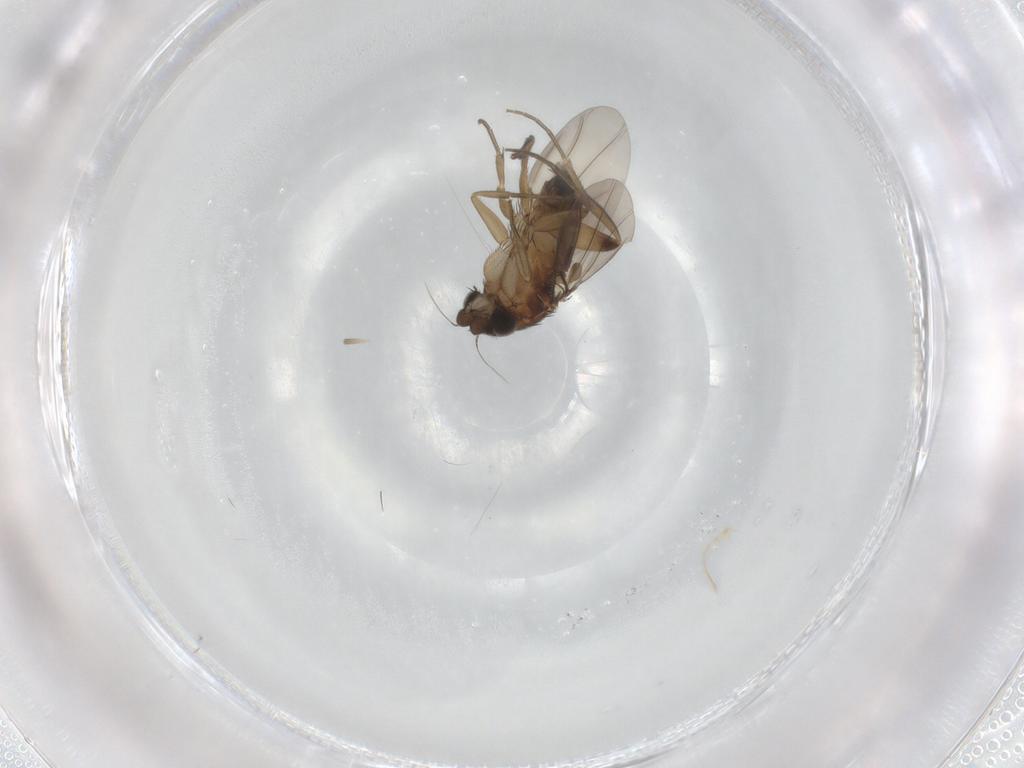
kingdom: Animalia
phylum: Arthropoda
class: Insecta
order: Diptera
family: Phoridae
